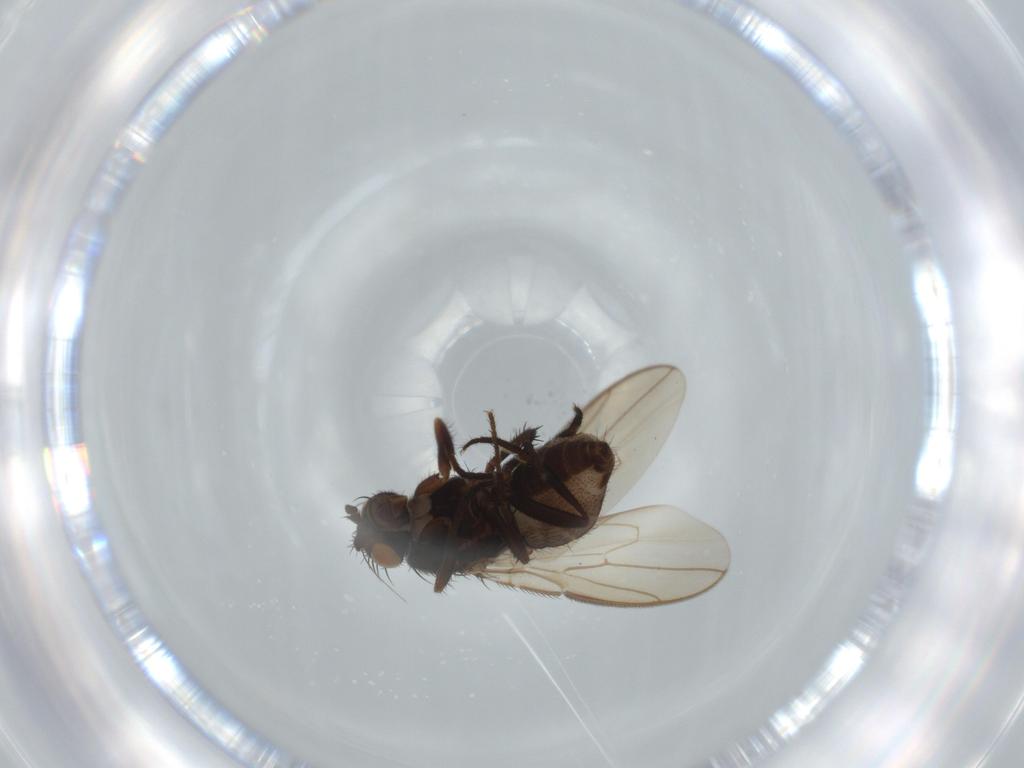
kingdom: Animalia
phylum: Arthropoda
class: Insecta
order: Diptera
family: Sphaeroceridae
